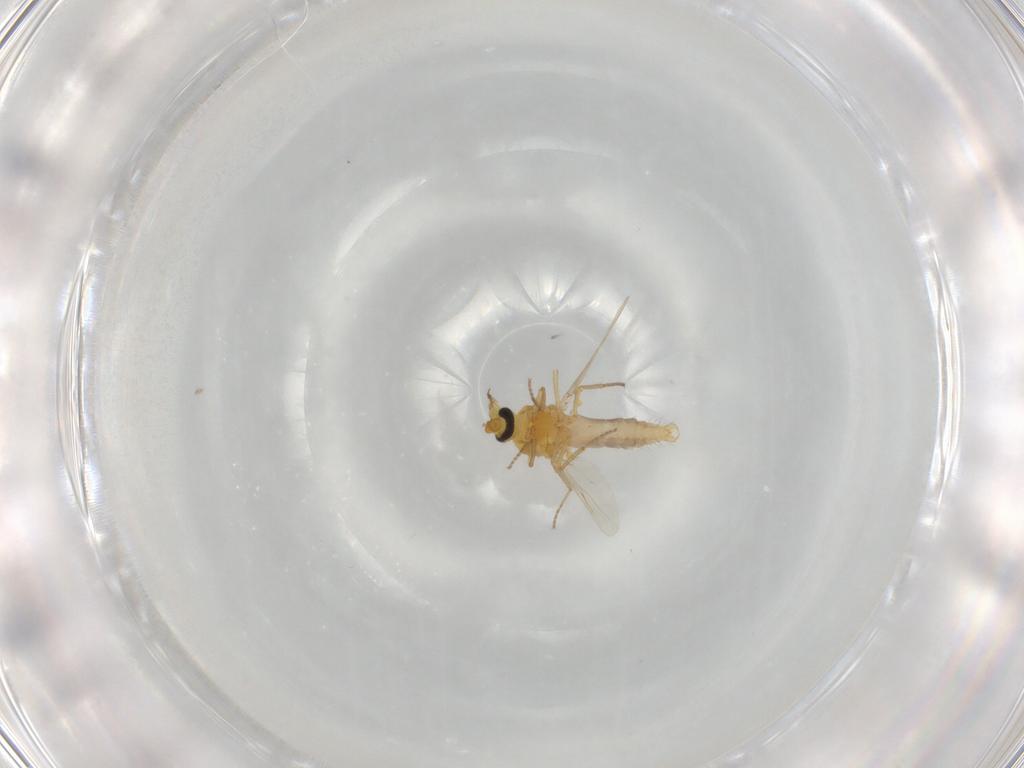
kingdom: Animalia
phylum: Arthropoda
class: Insecta
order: Diptera
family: Ceratopogonidae
